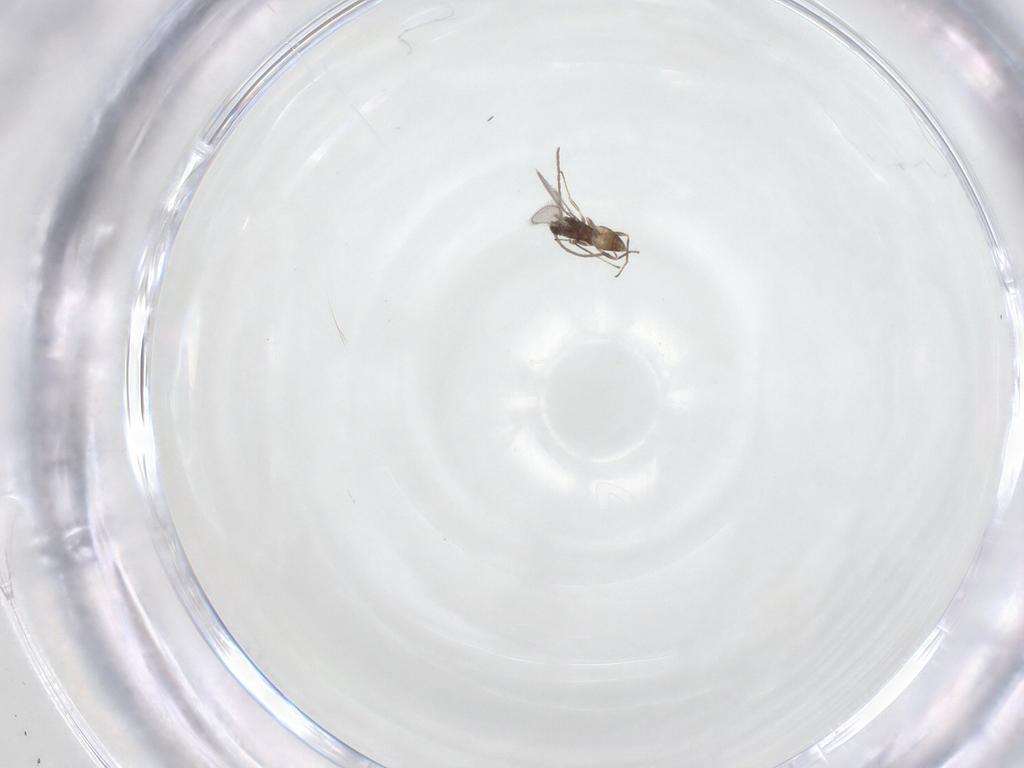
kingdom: Animalia
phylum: Arthropoda
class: Insecta
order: Hymenoptera
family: Mymaridae
